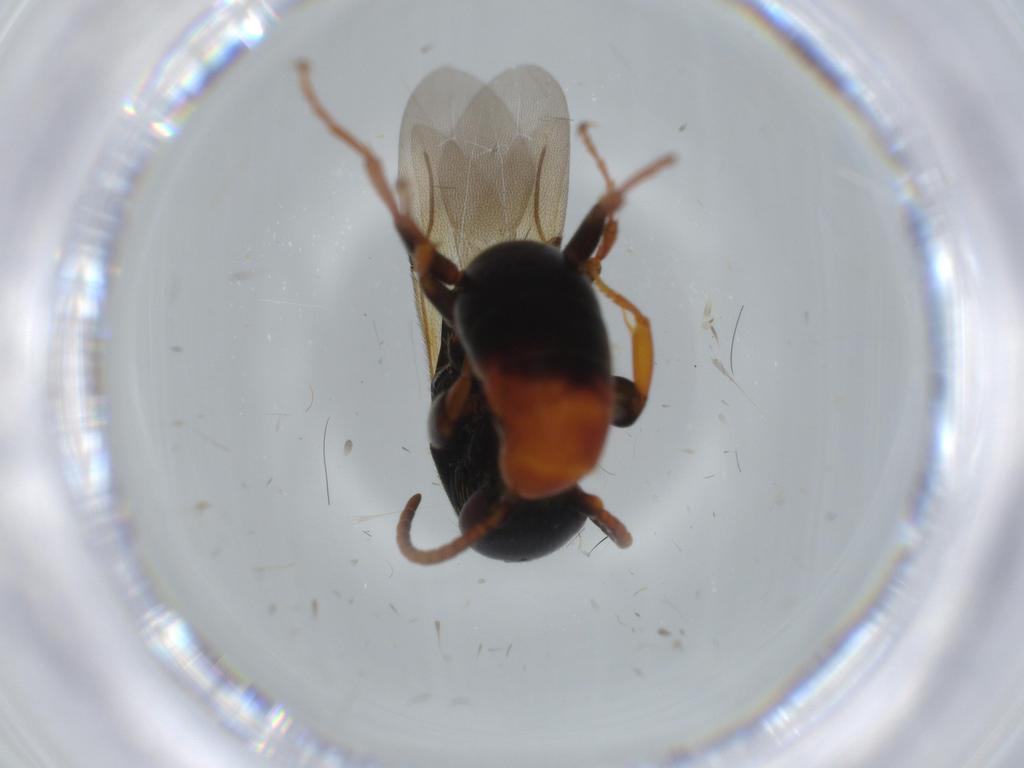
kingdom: Animalia
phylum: Arthropoda
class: Insecta
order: Hymenoptera
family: Bethylidae
